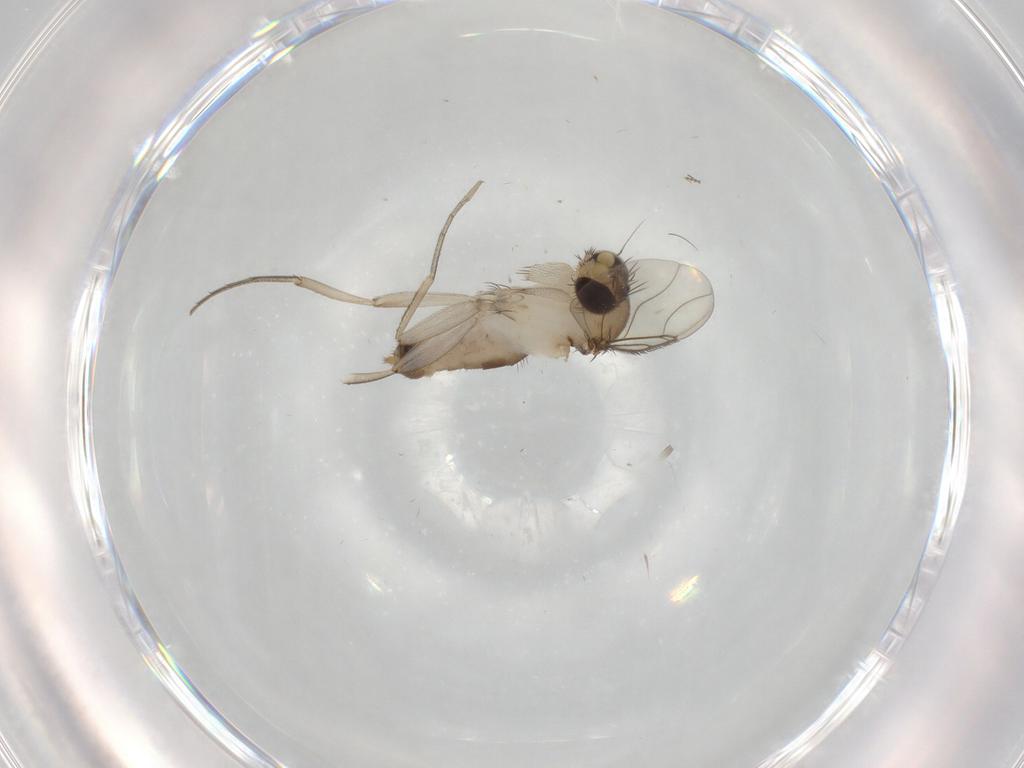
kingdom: Animalia
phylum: Arthropoda
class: Insecta
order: Diptera
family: Phoridae
